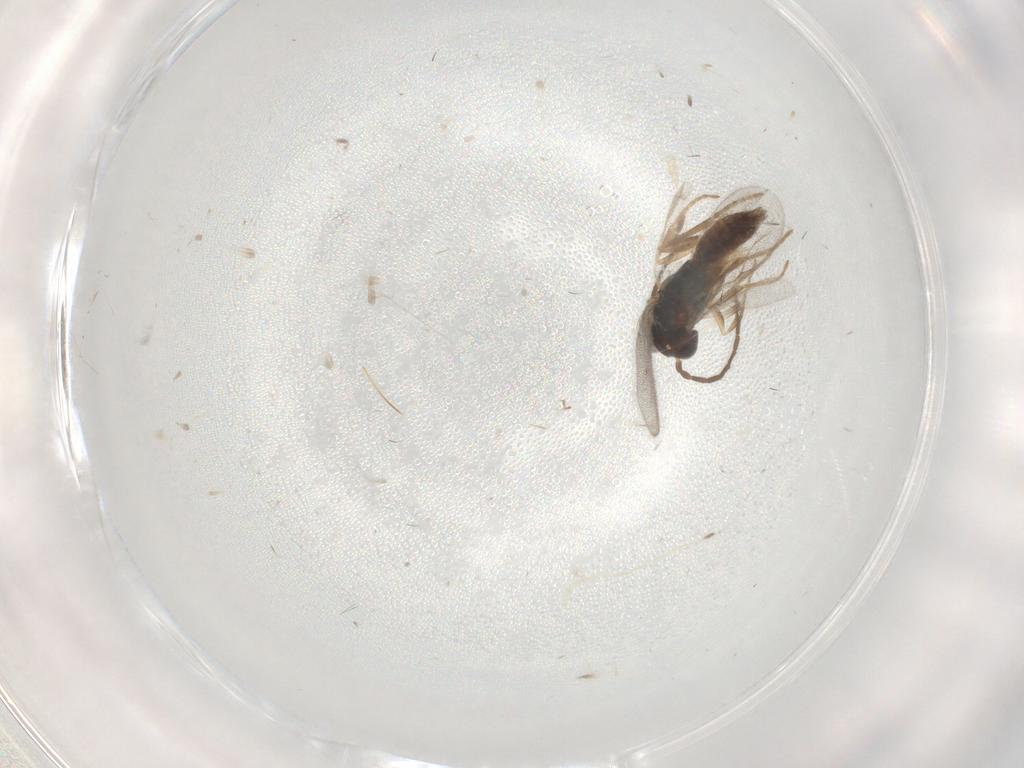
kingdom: Animalia
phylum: Arthropoda
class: Insecta
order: Hymenoptera
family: Dryinidae
